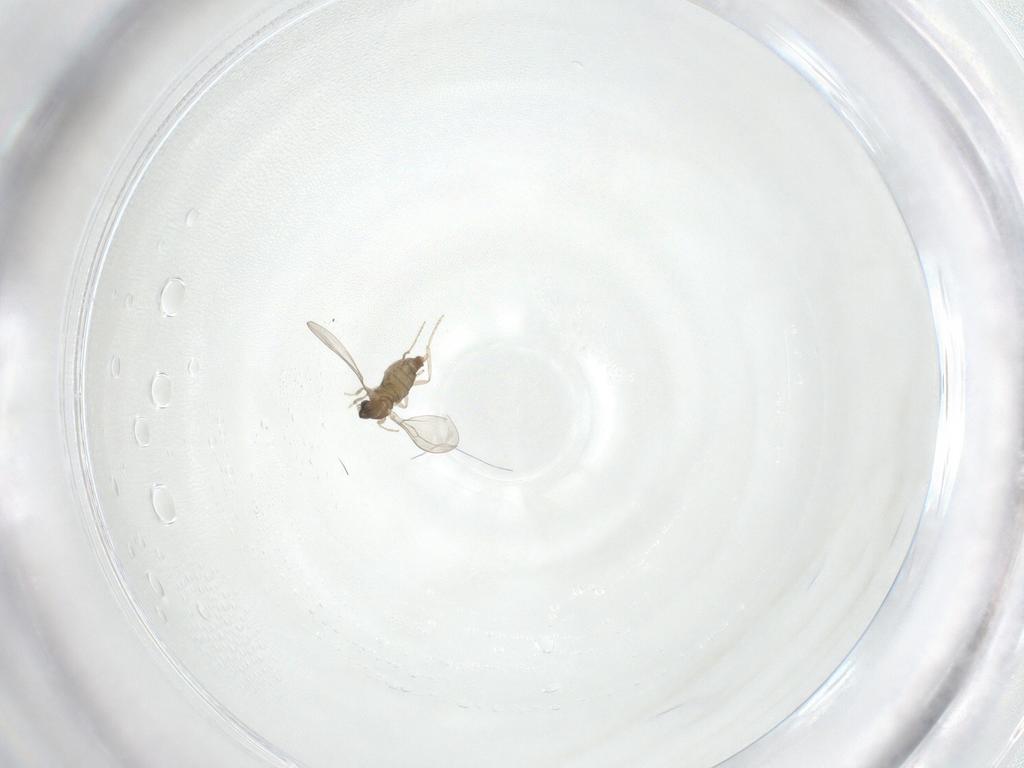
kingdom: Animalia
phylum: Arthropoda
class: Insecta
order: Diptera
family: Cecidomyiidae
